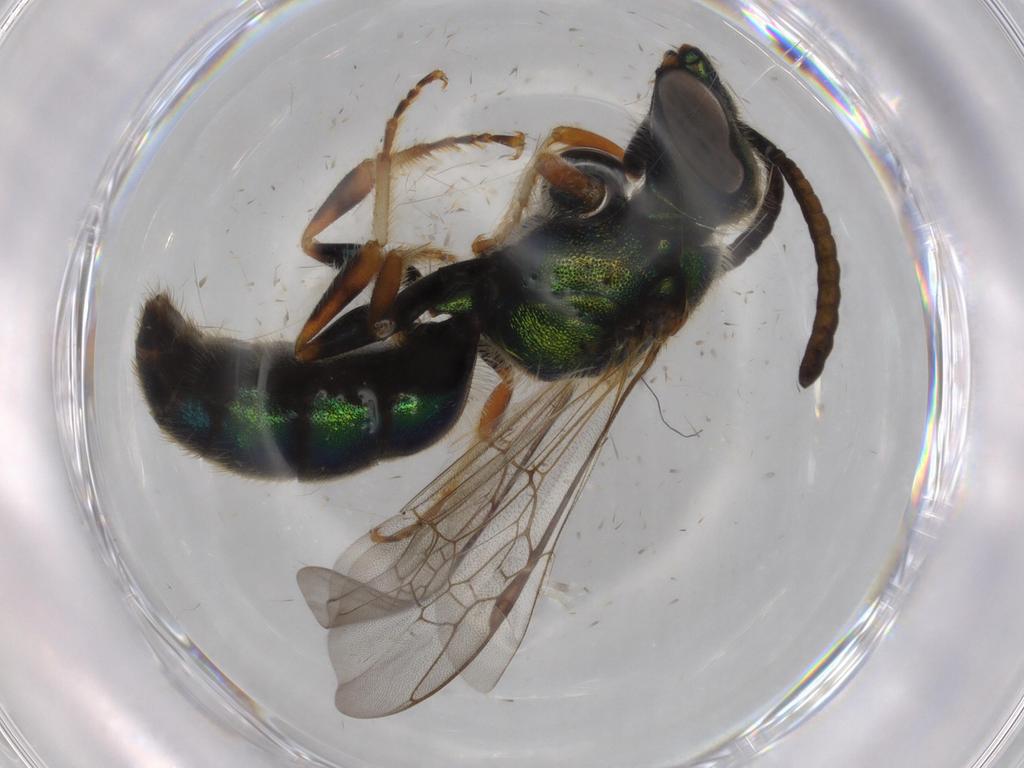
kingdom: Animalia
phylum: Arthropoda
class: Insecta
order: Hymenoptera
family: Halictidae
